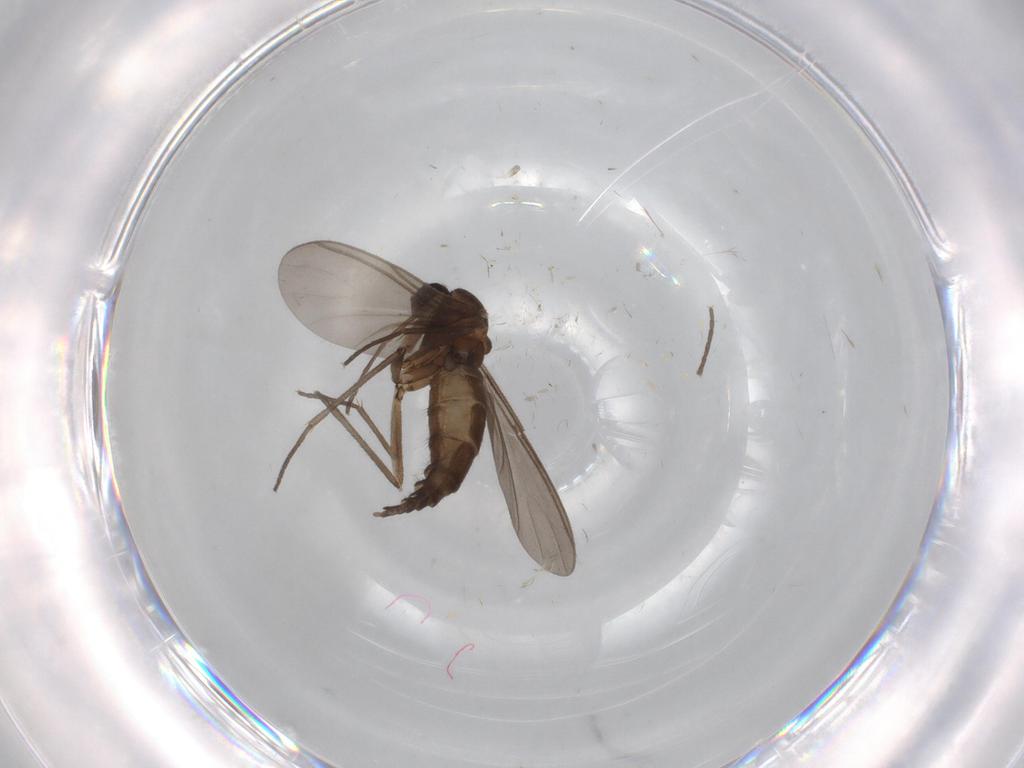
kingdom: Animalia
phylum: Arthropoda
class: Insecta
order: Diptera
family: Sciaridae
